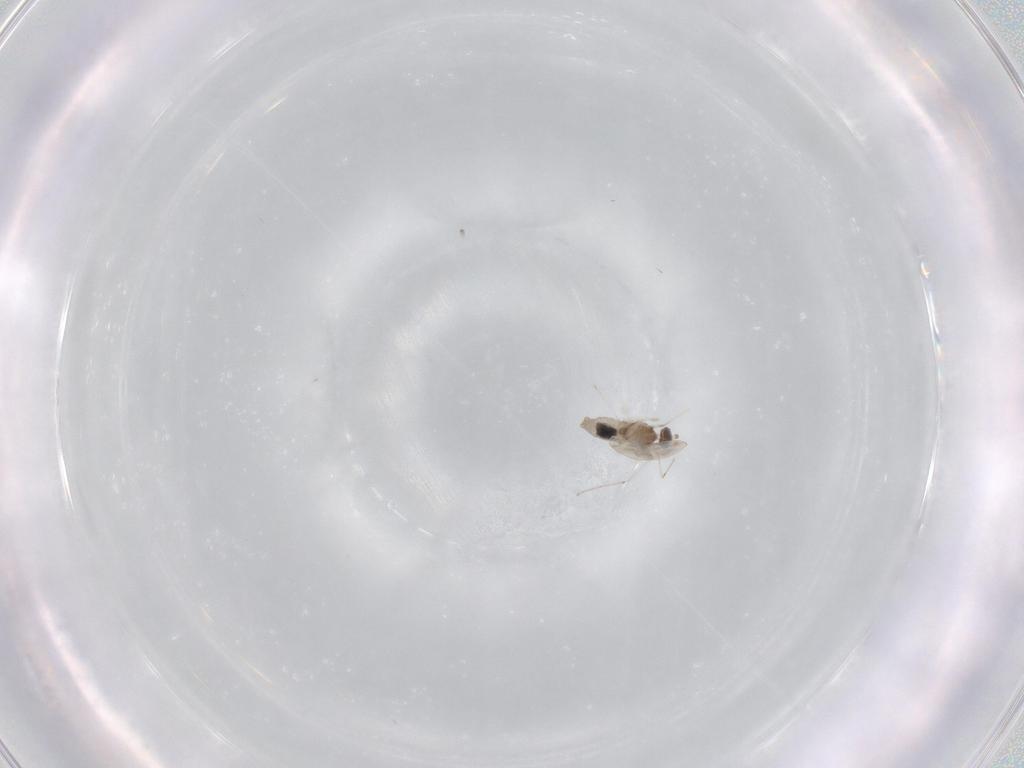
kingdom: Animalia
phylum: Arthropoda
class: Insecta
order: Diptera
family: Cecidomyiidae
